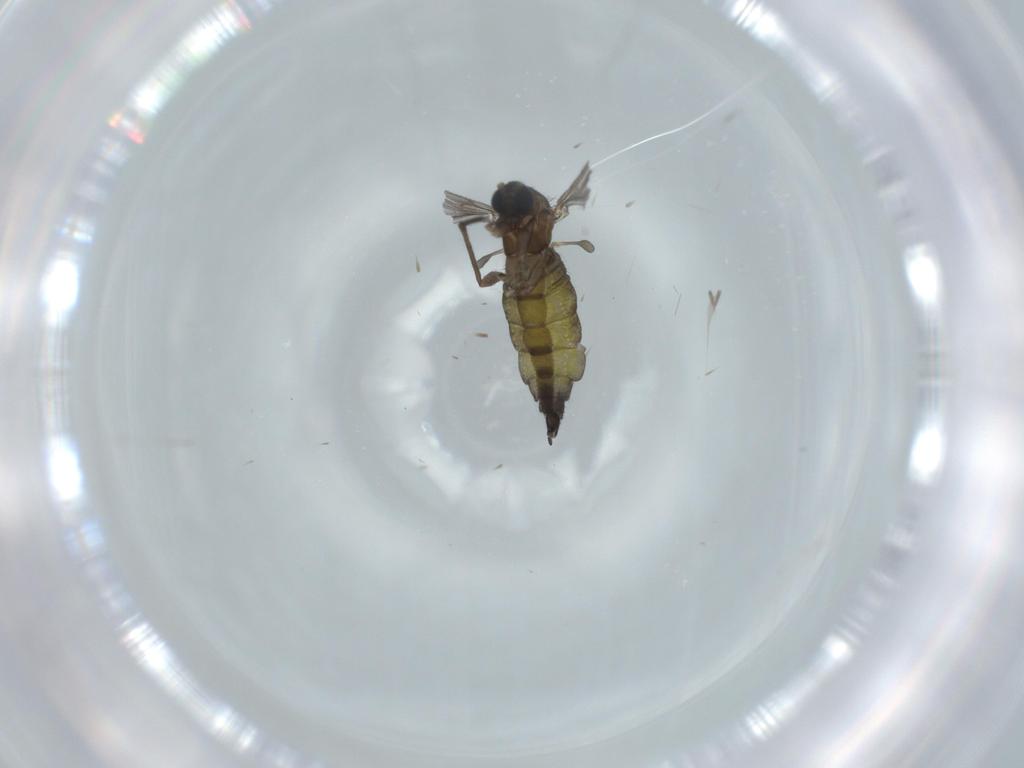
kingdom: Animalia
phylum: Arthropoda
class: Insecta
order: Diptera
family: Sciaridae
